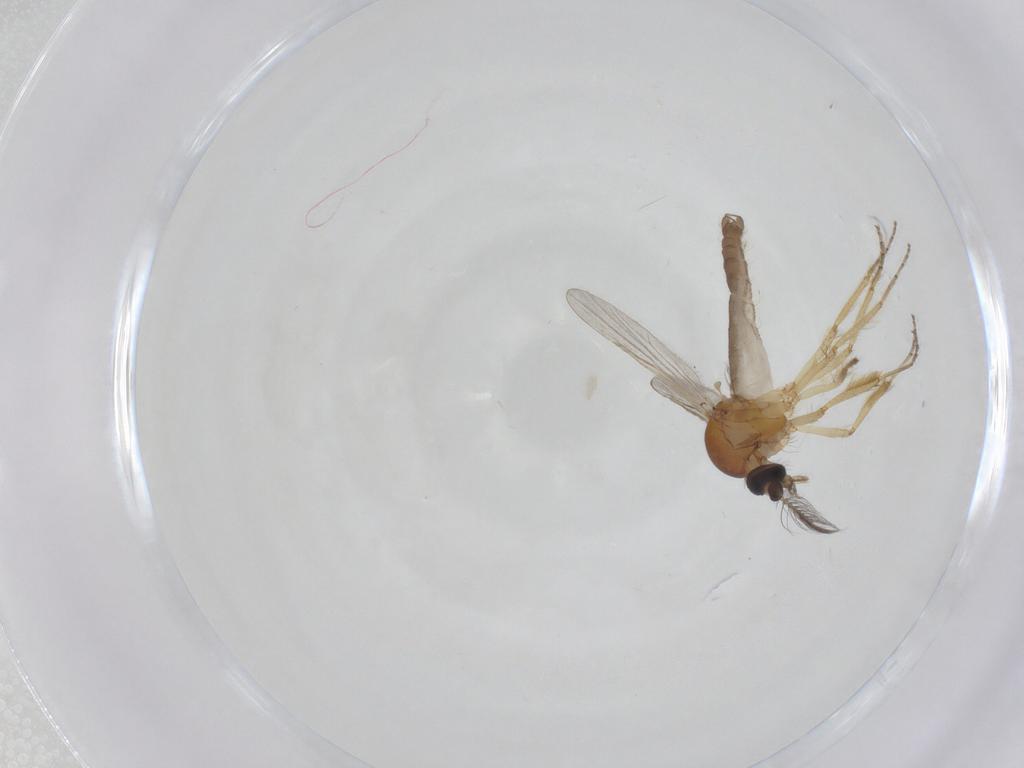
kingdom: Animalia
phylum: Arthropoda
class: Insecta
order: Diptera
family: Ceratopogonidae
